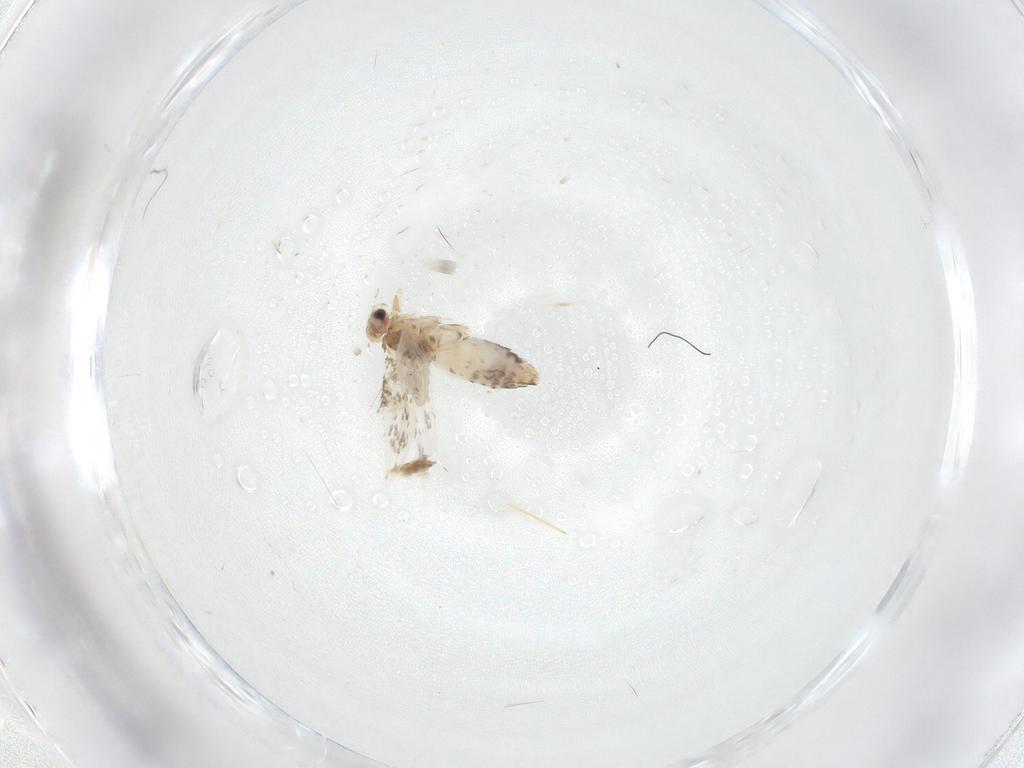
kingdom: Animalia
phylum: Arthropoda
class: Insecta
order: Lepidoptera
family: Nepticulidae
